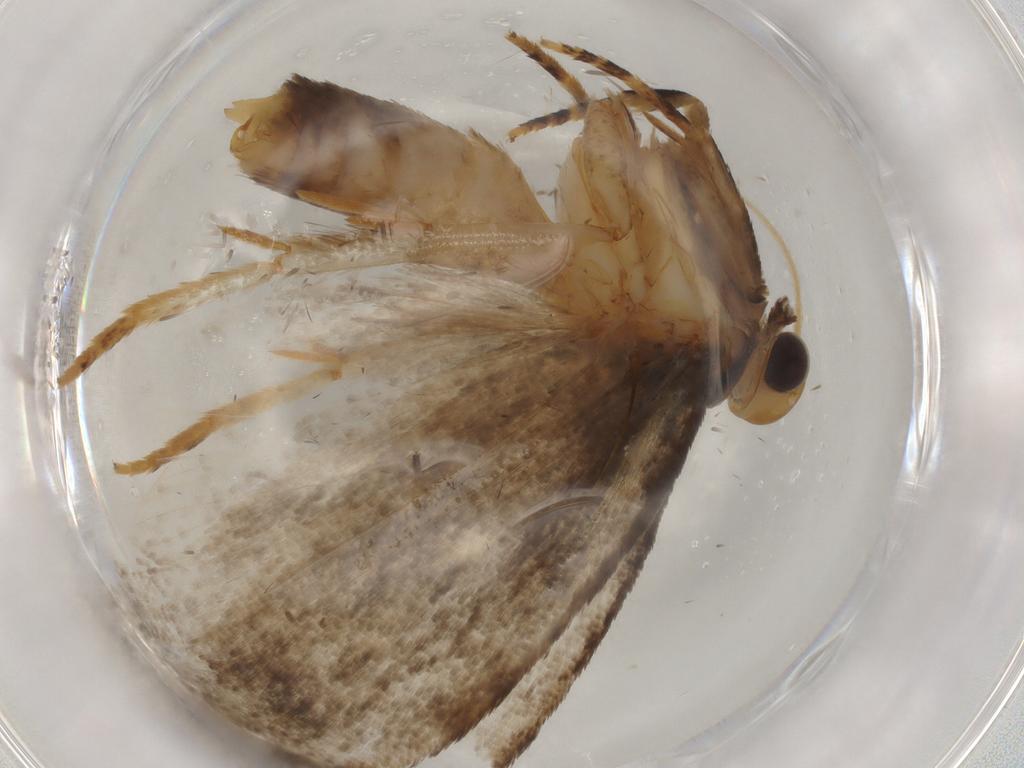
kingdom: Animalia
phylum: Arthropoda
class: Insecta
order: Lepidoptera
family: Oecophoridae
